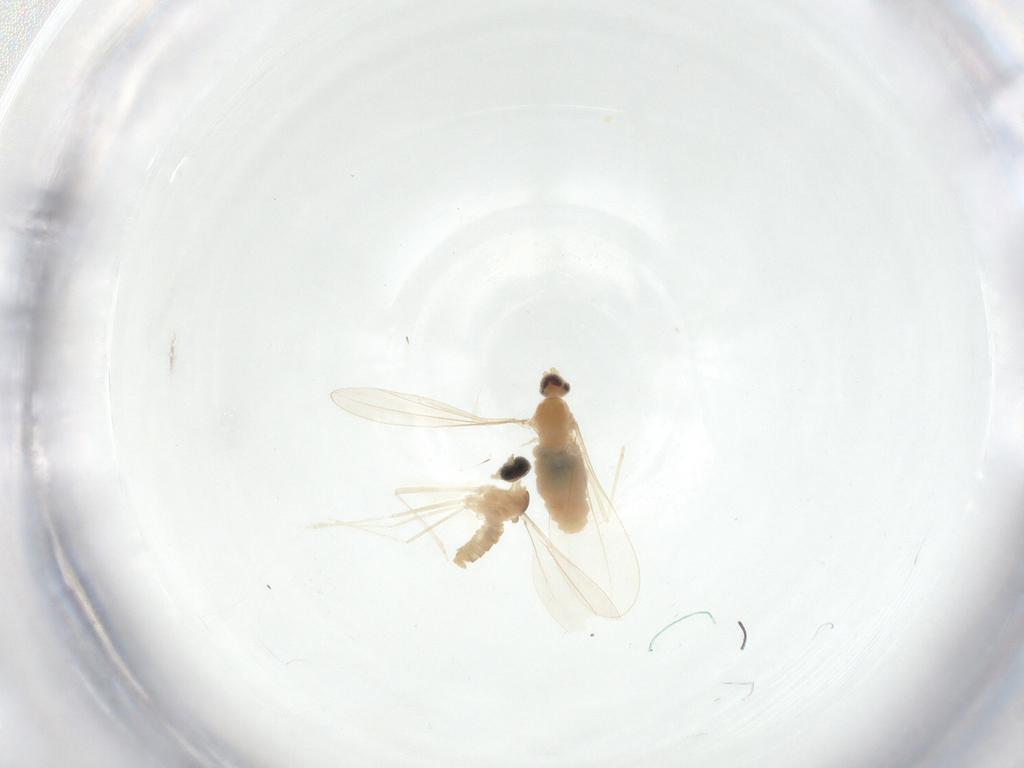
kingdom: Animalia
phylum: Arthropoda
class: Insecta
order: Diptera
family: Cecidomyiidae
